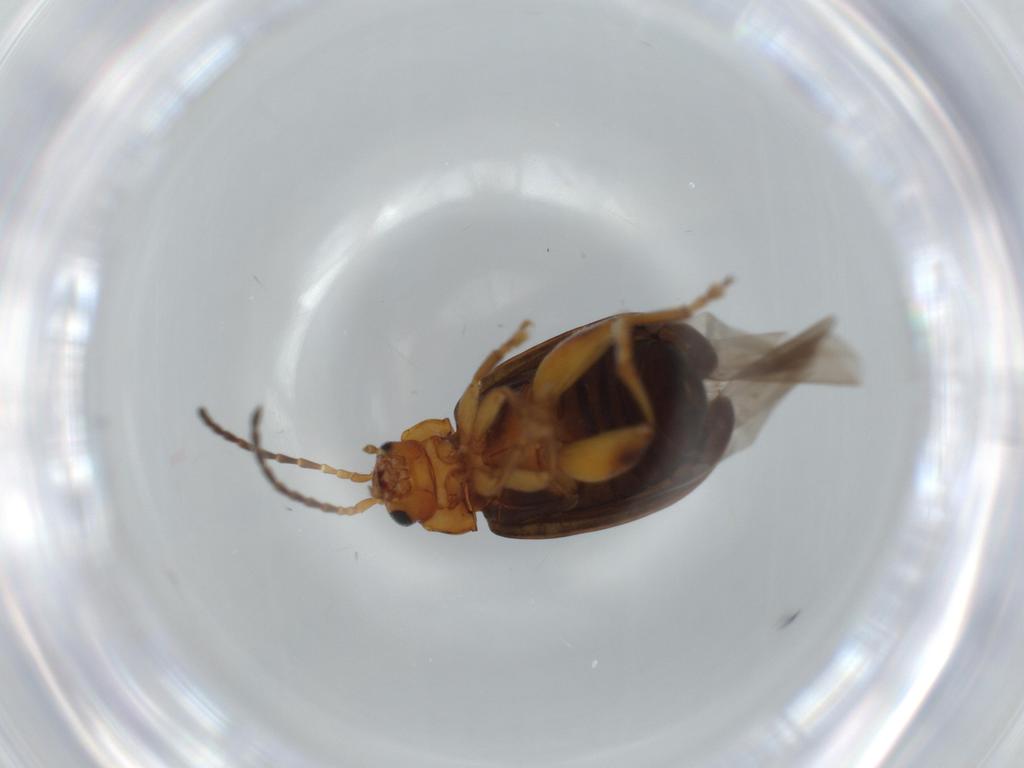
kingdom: Animalia
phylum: Arthropoda
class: Insecta
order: Coleoptera
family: Chrysomelidae
